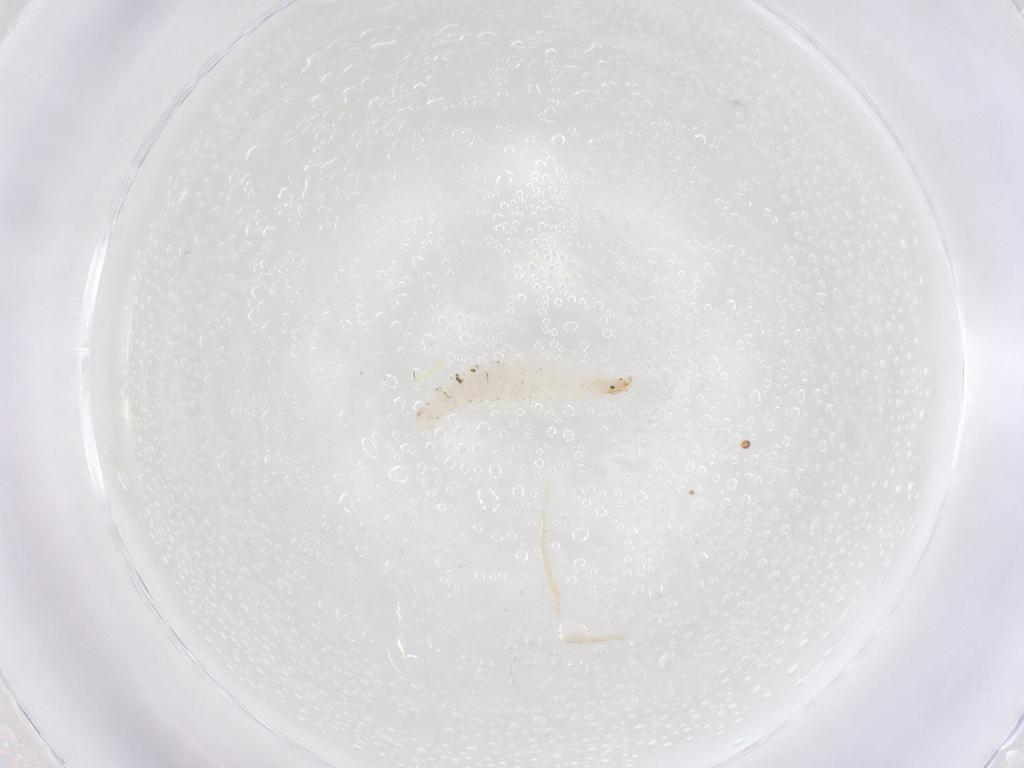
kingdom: Animalia
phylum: Arthropoda
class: Insecta
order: Diptera
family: Stratiomyidae
